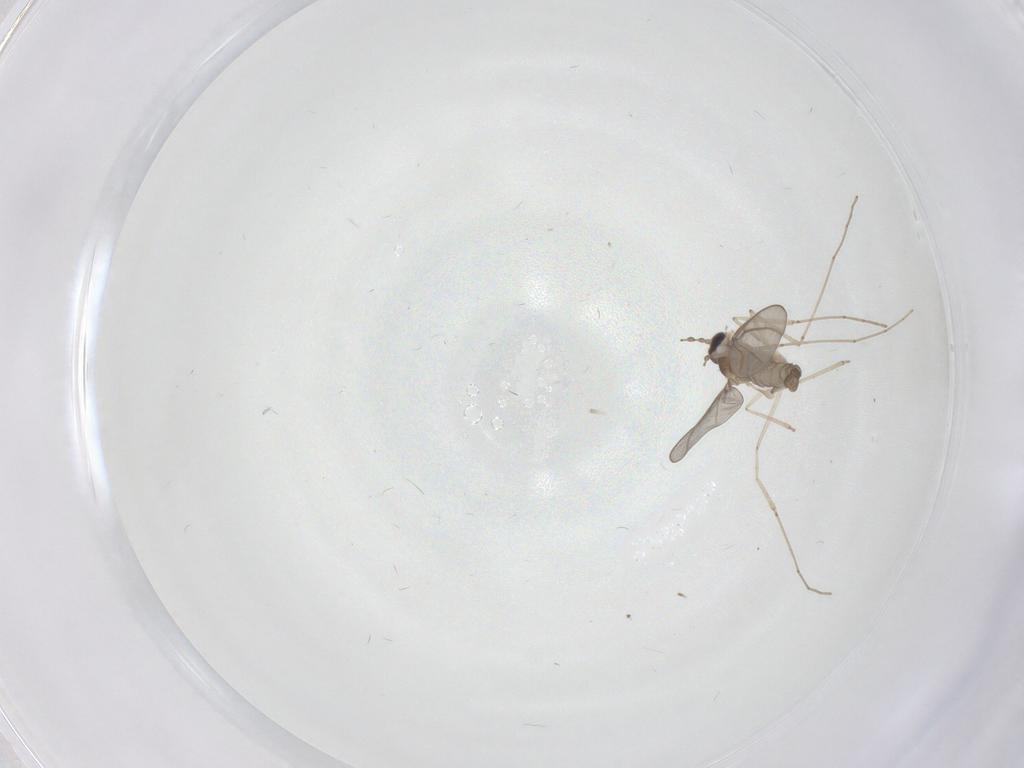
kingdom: Animalia
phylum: Arthropoda
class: Insecta
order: Diptera
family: Cecidomyiidae
